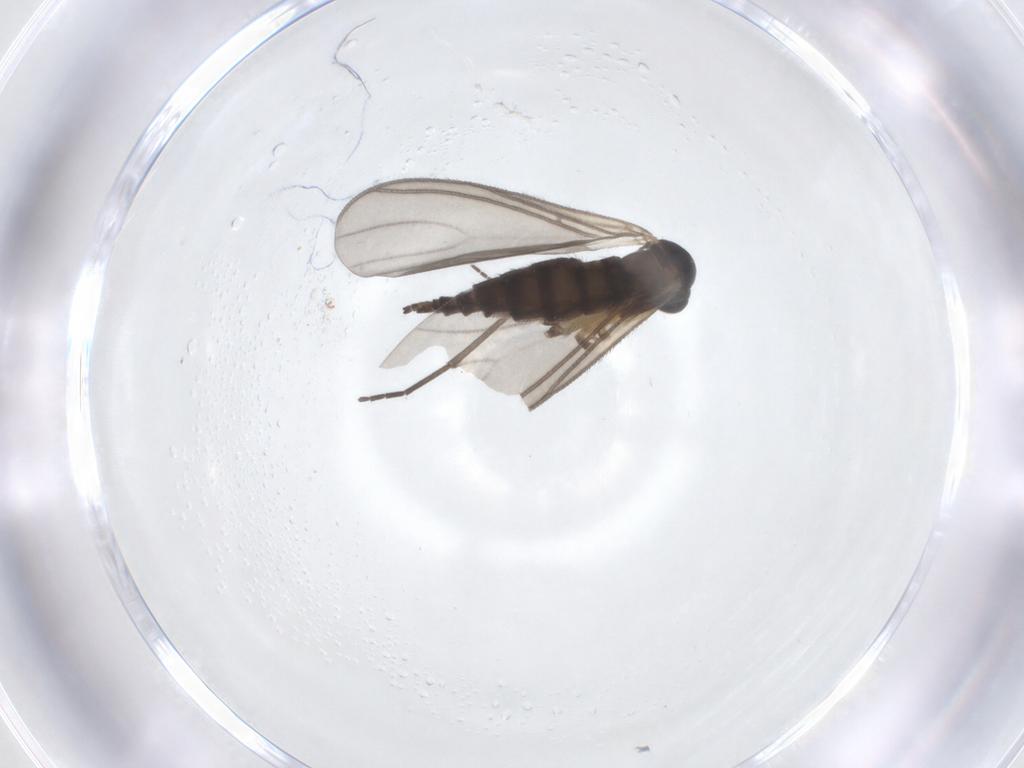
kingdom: Animalia
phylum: Arthropoda
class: Insecta
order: Diptera
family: Sciaridae
